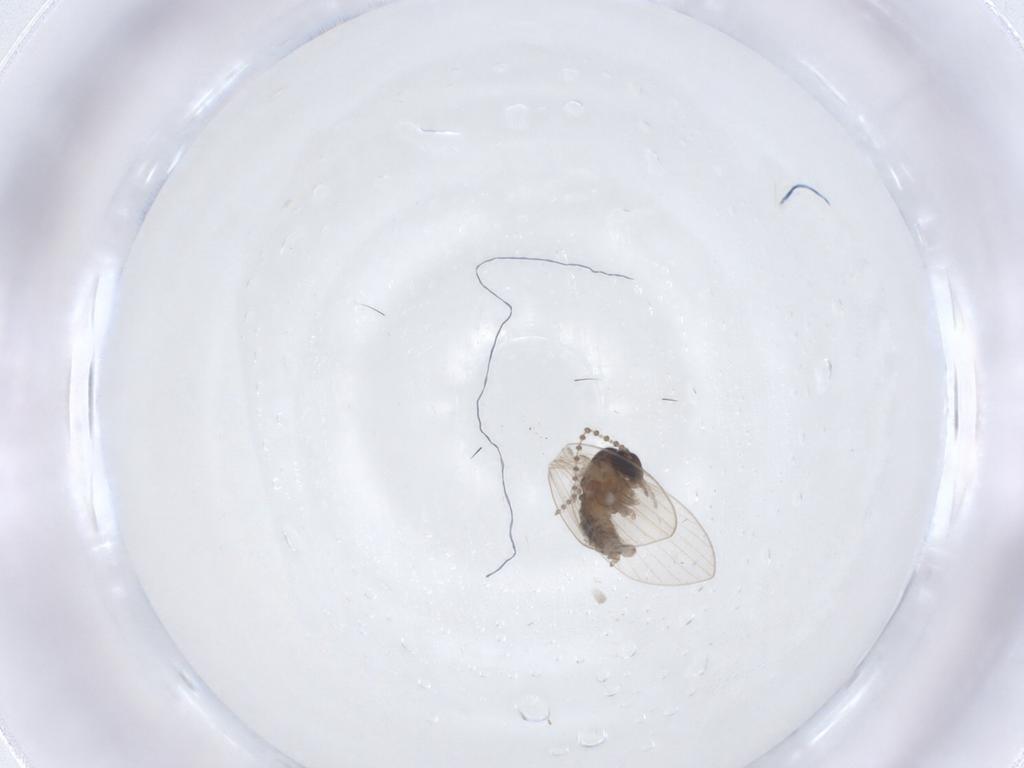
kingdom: Animalia
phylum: Arthropoda
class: Insecta
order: Diptera
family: Psychodidae
